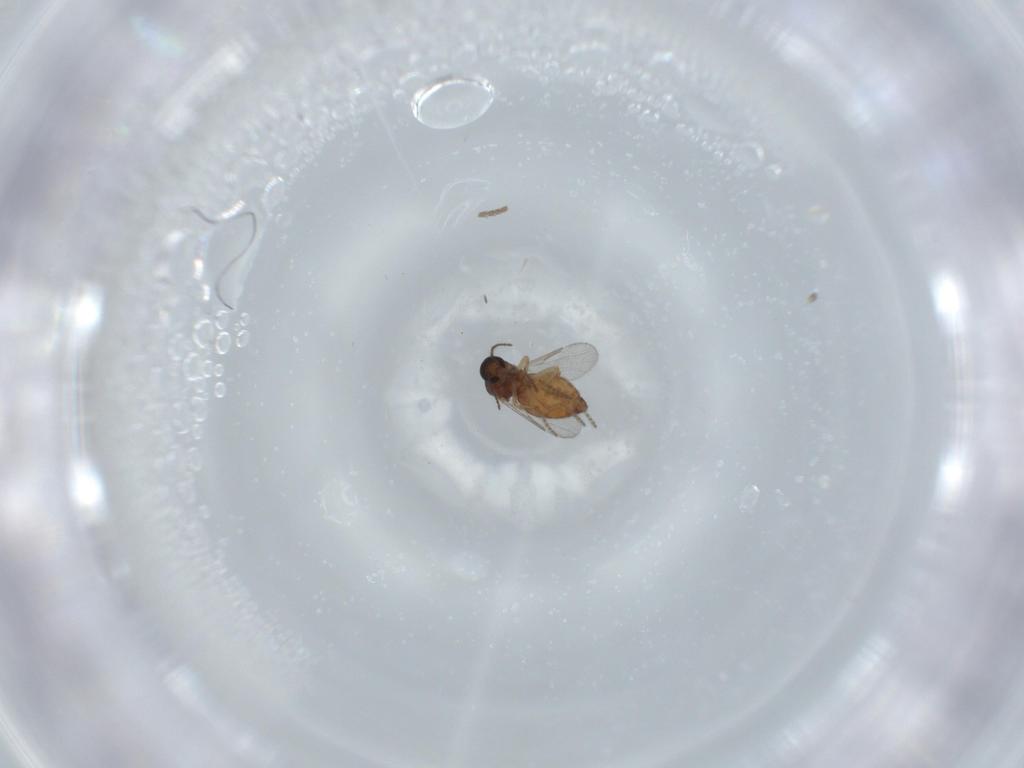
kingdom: Animalia
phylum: Arthropoda
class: Insecta
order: Diptera
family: Ceratopogonidae
